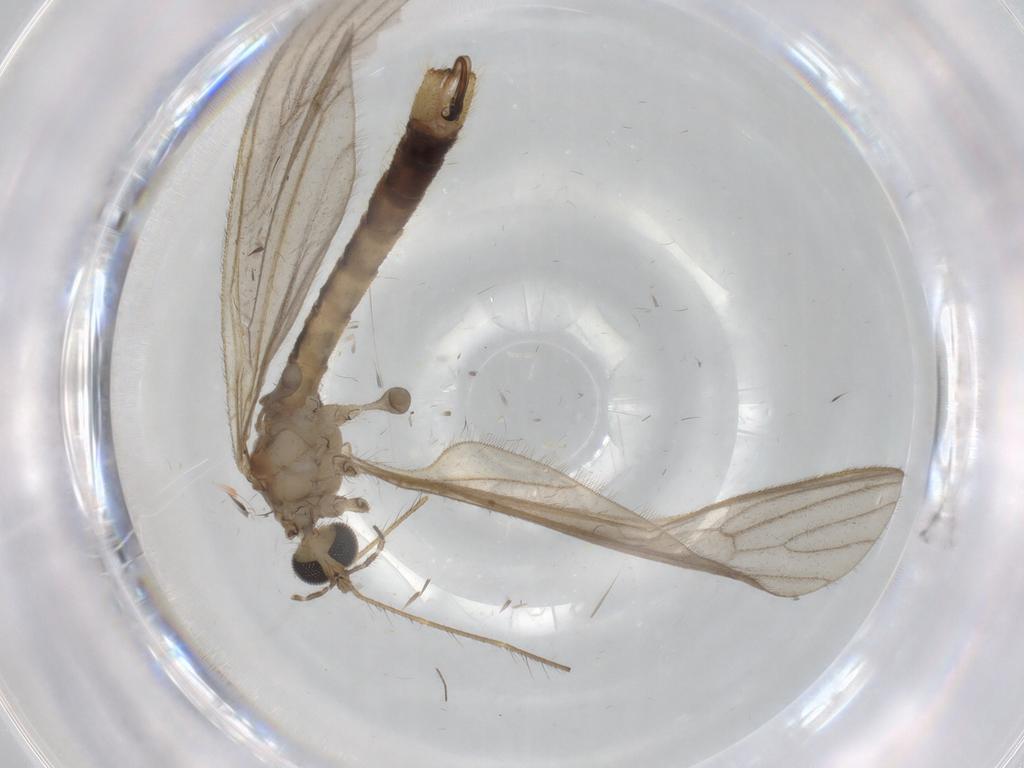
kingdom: Animalia
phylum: Arthropoda
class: Insecta
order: Diptera
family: Limoniidae
